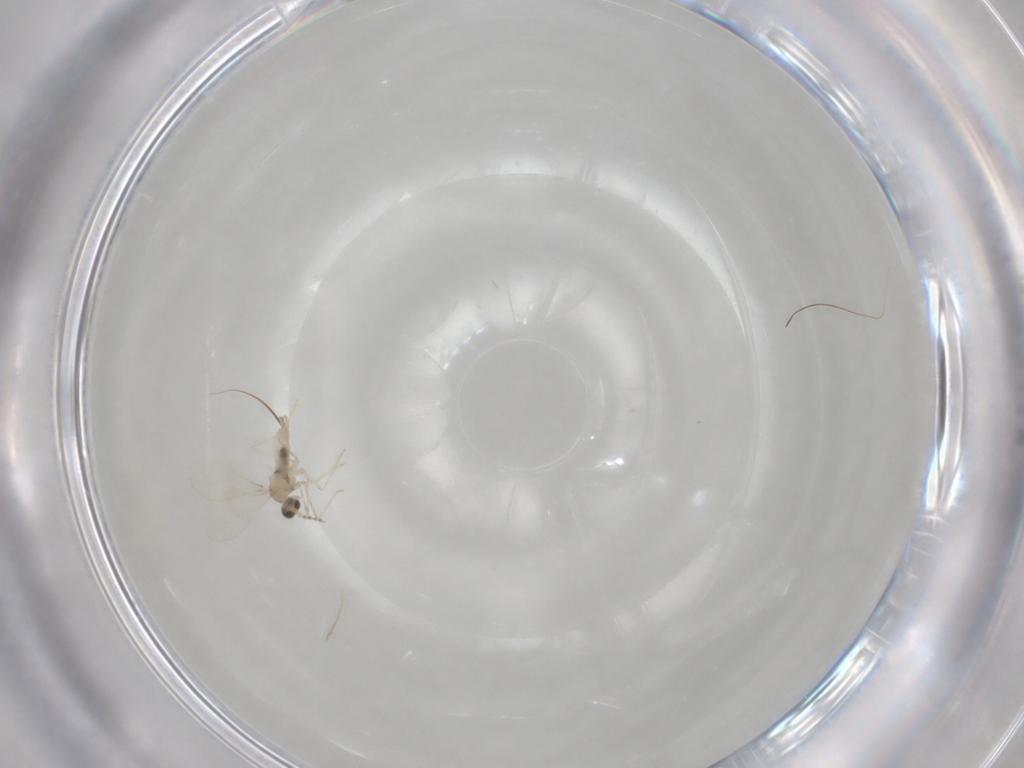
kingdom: Animalia
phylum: Arthropoda
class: Insecta
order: Diptera
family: Cecidomyiidae
